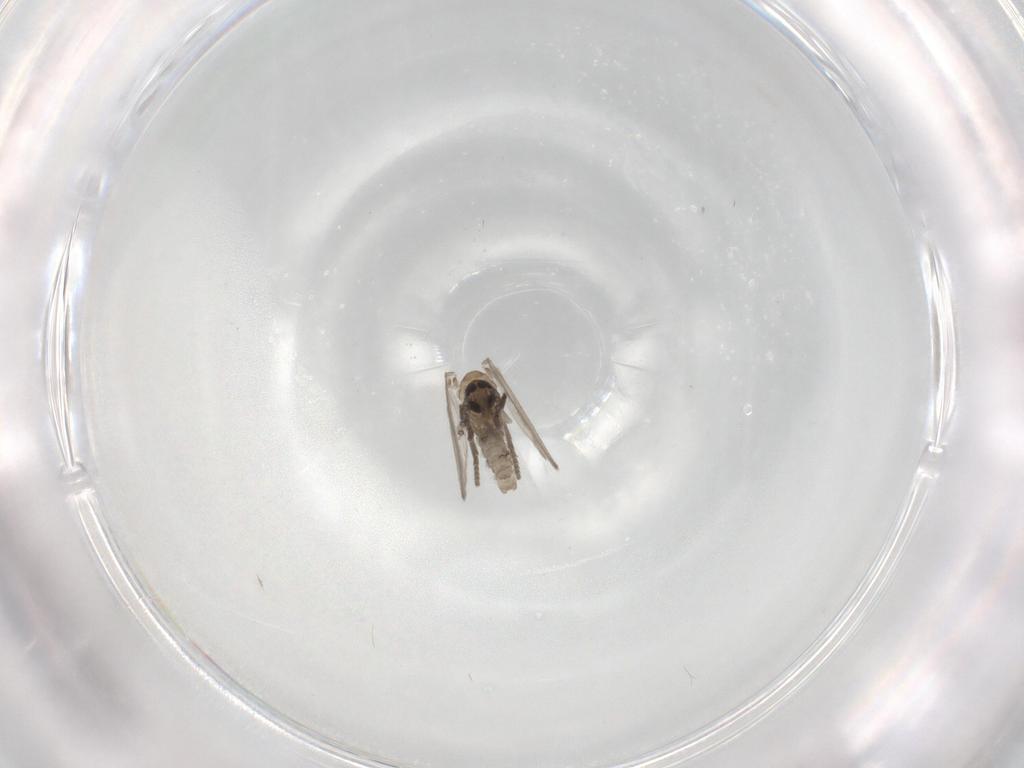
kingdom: Animalia
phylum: Arthropoda
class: Insecta
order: Diptera
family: Psychodidae
